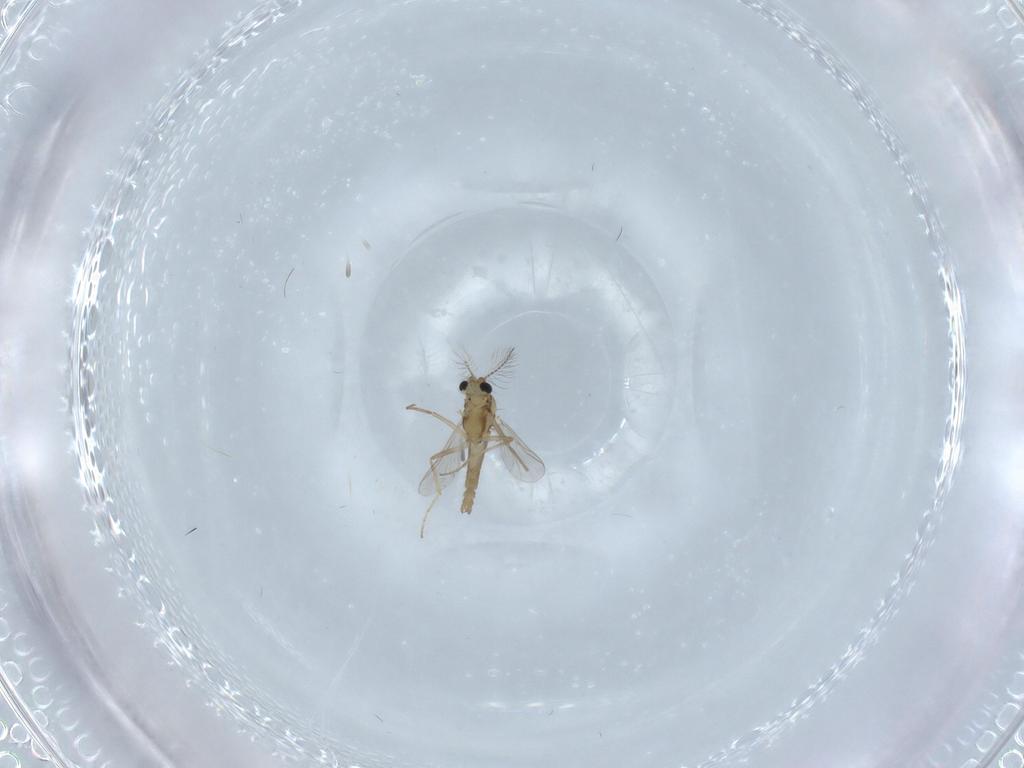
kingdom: Animalia
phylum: Arthropoda
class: Insecta
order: Diptera
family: Chironomidae
